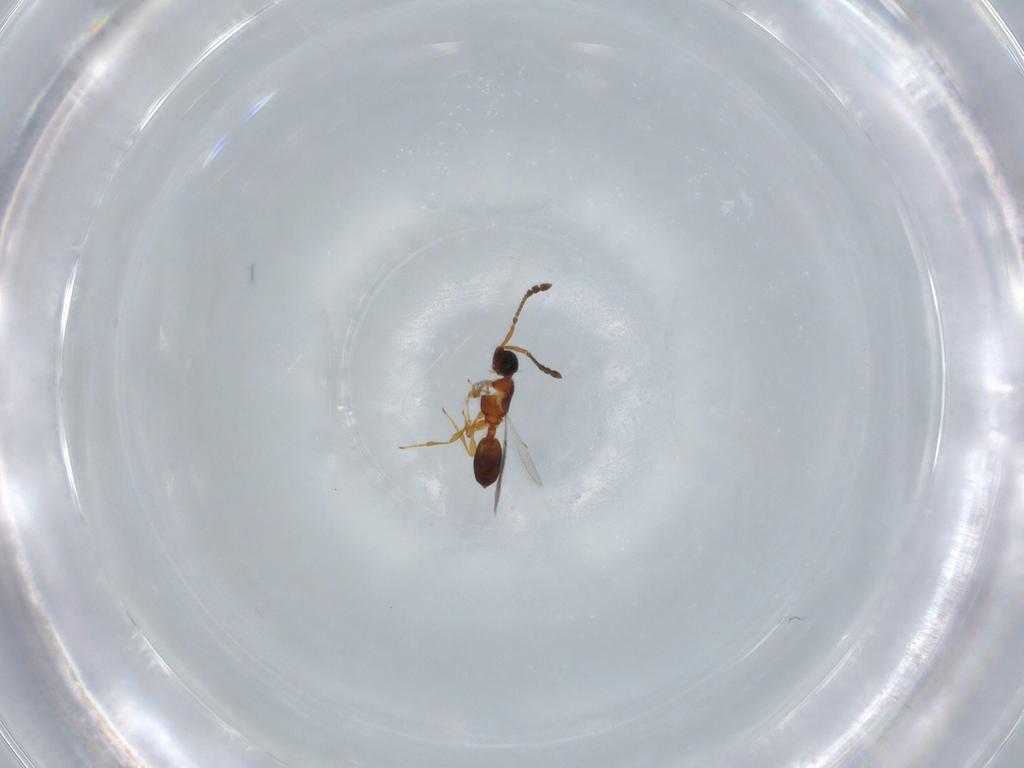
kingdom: Animalia
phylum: Arthropoda
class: Insecta
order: Hymenoptera
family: Diapriidae
